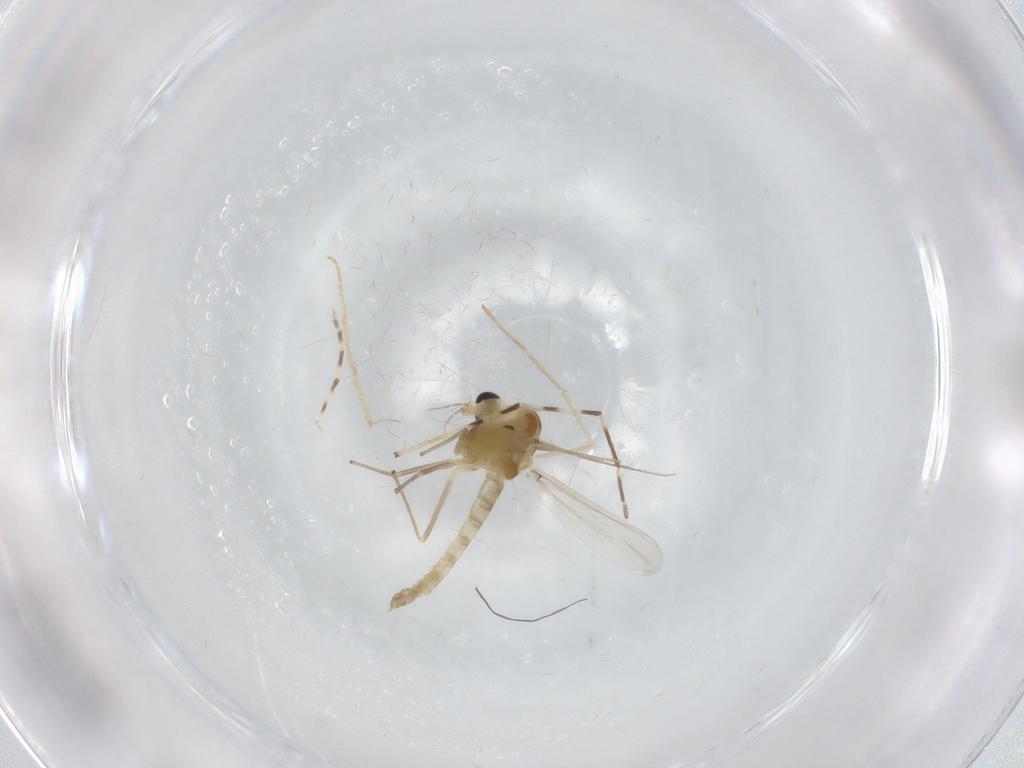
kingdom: Animalia
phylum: Arthropoda
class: Insecta
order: Diptera
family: Chironomidae
